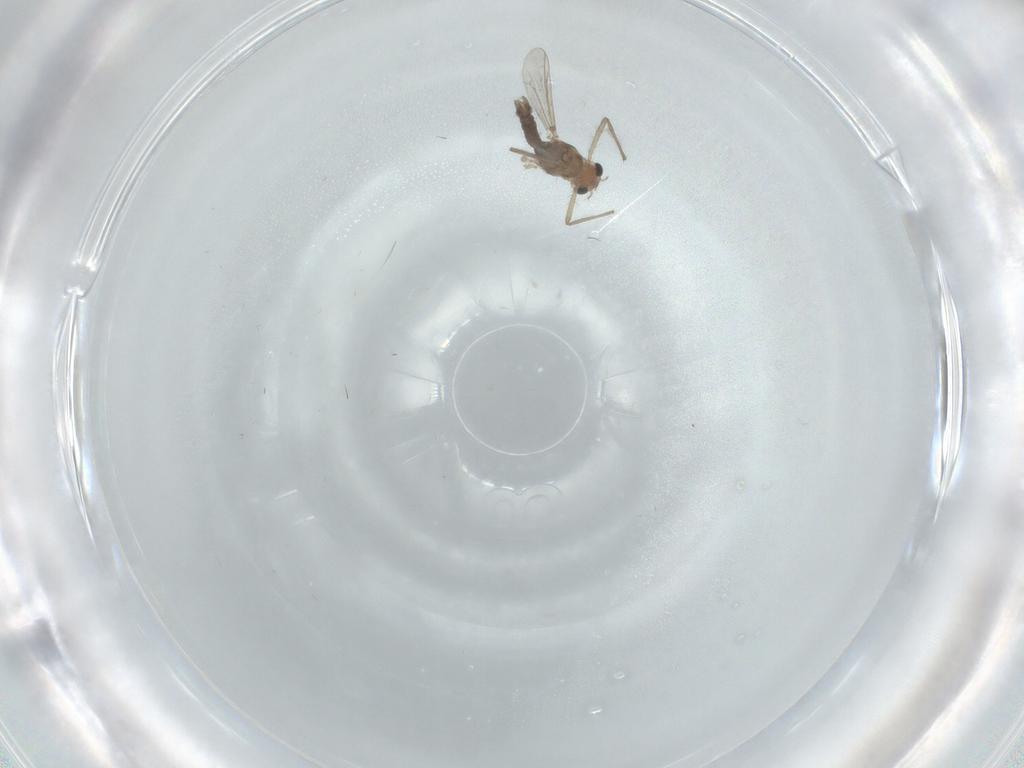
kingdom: Animalia
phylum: Arthropoda
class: Insecta
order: Diptera
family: Chironomidae
